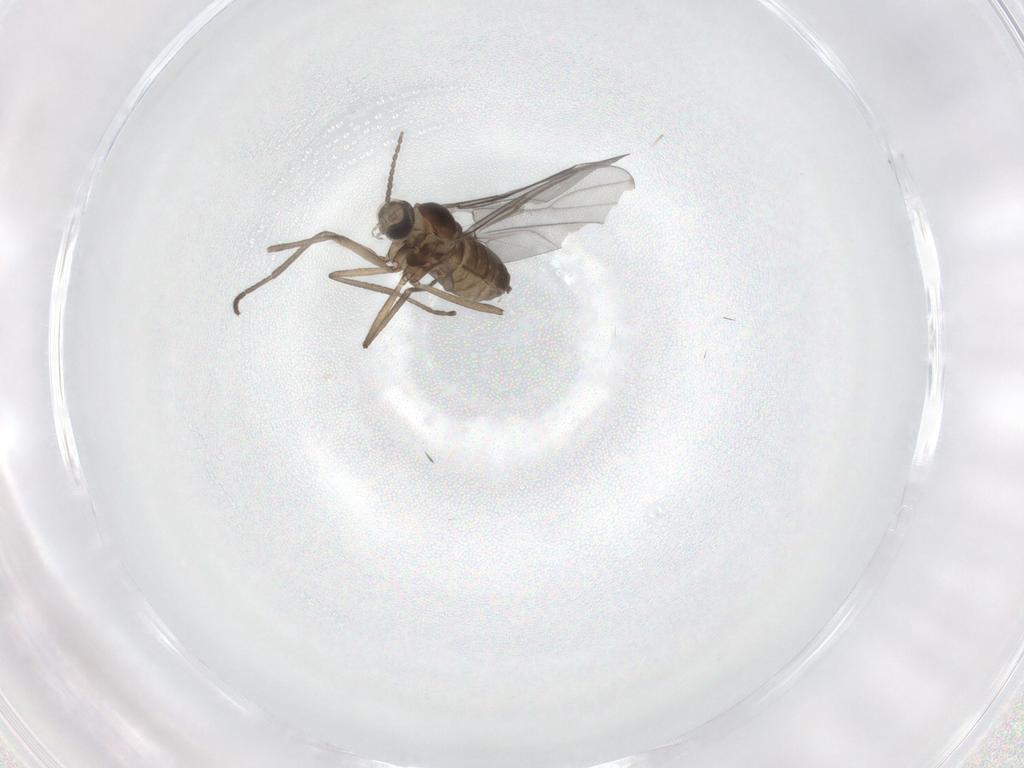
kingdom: Animalia
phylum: Arthropoda
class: Insecta
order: Diptera
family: Cecidomyiidae
